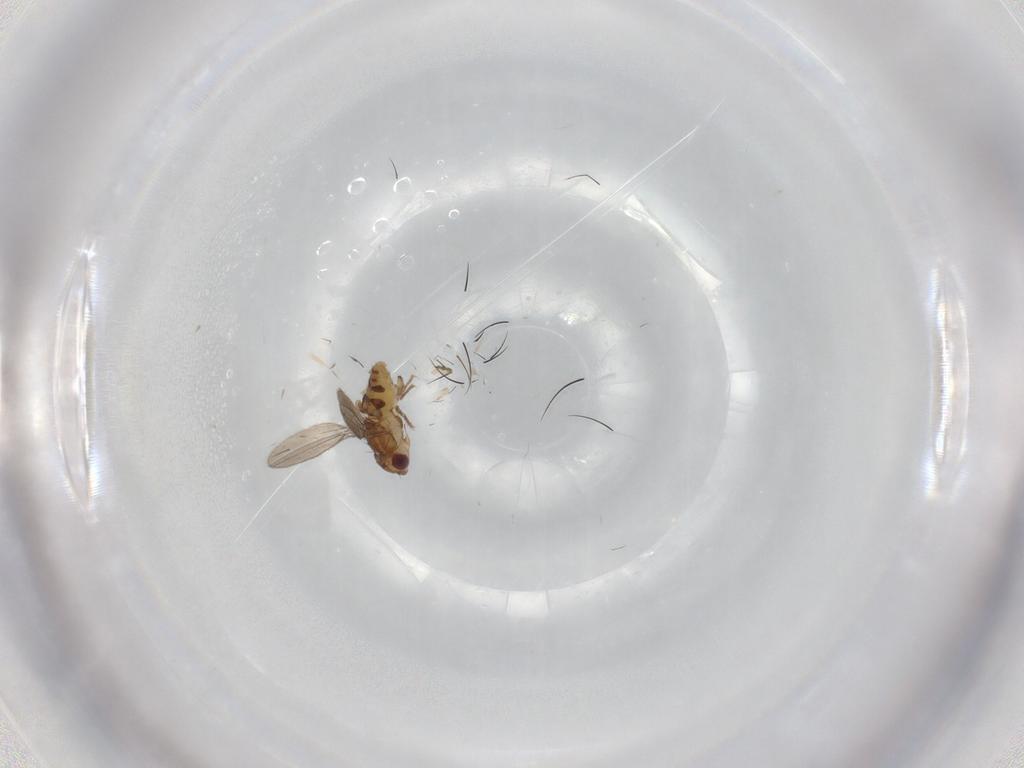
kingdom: Animalia
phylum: Arthropoda
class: Insecta
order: Diptera
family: Asteiidae
